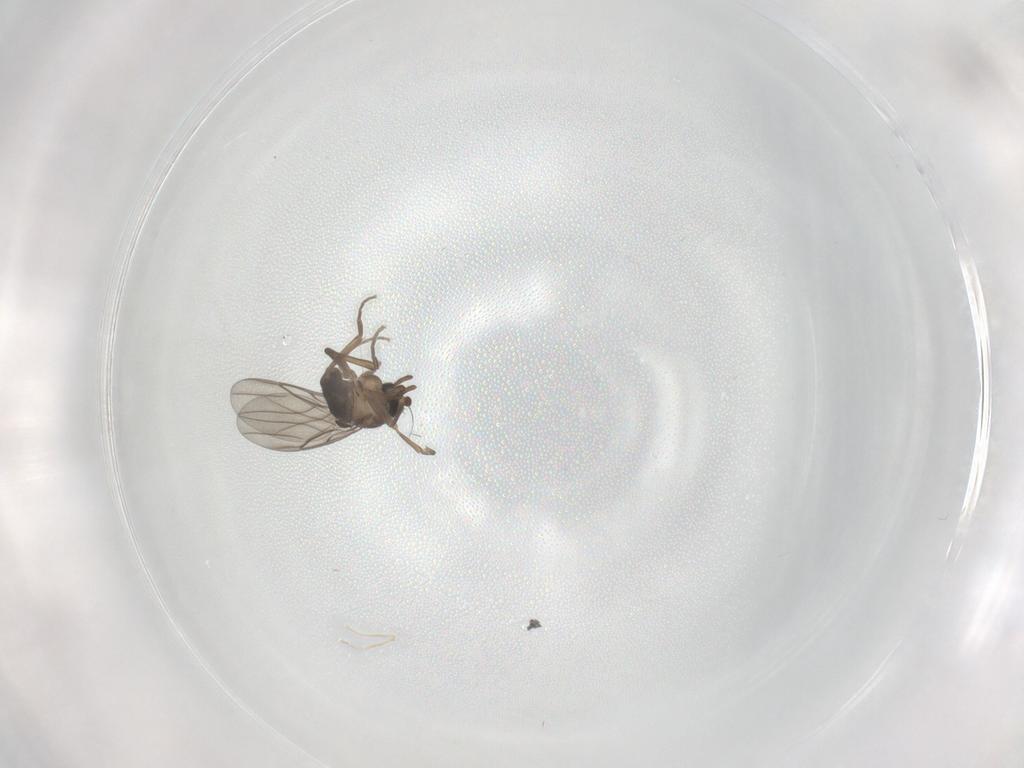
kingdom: Animalia
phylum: Arthropoda
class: Insecta
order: Diptera
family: Phoridae
